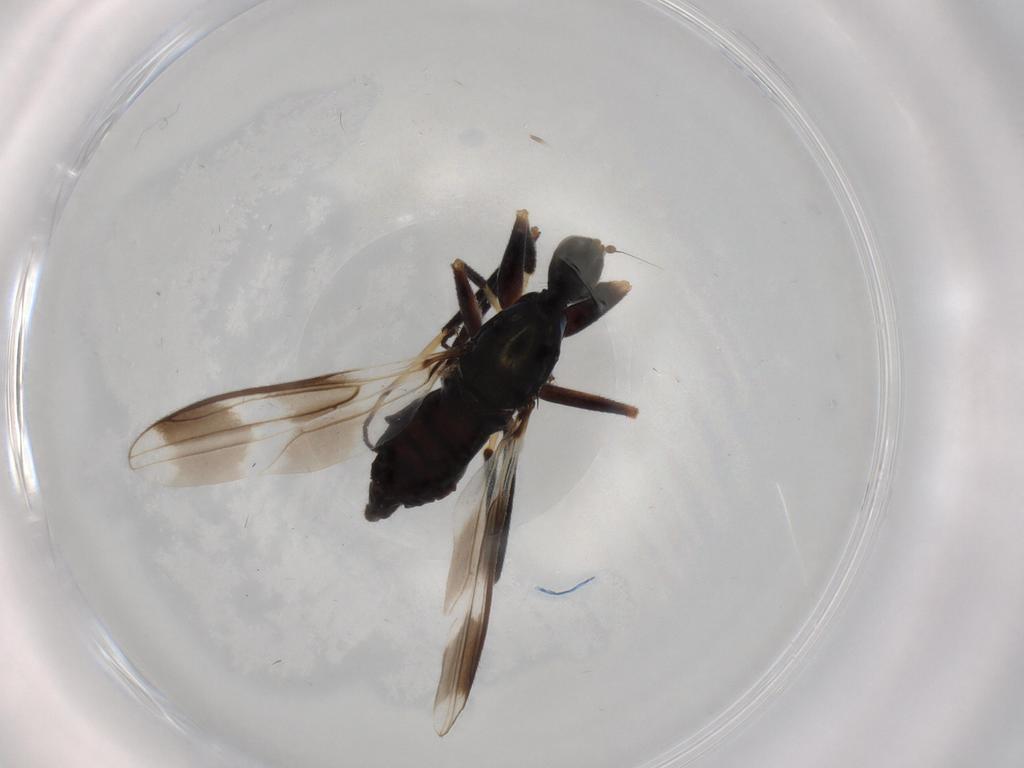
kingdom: Animalia
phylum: Arthropoda
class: Insecta
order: Diptera
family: Hybotidae
